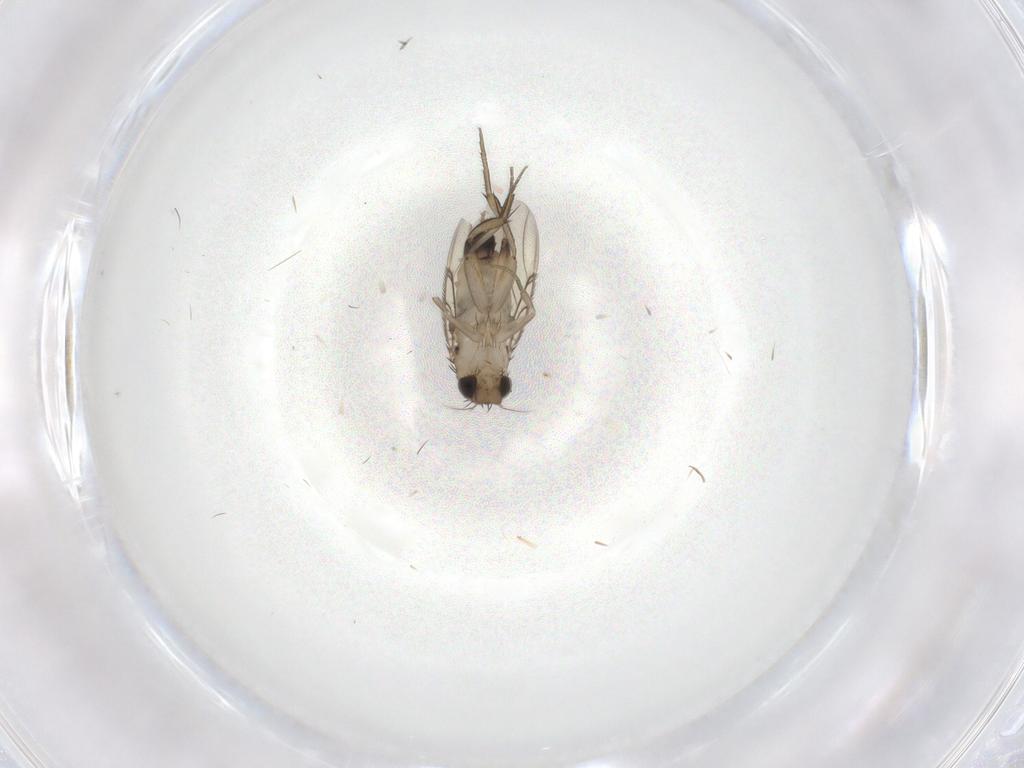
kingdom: Animalia
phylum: Arthropoda
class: Insecta
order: Diptera
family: Phoridae
